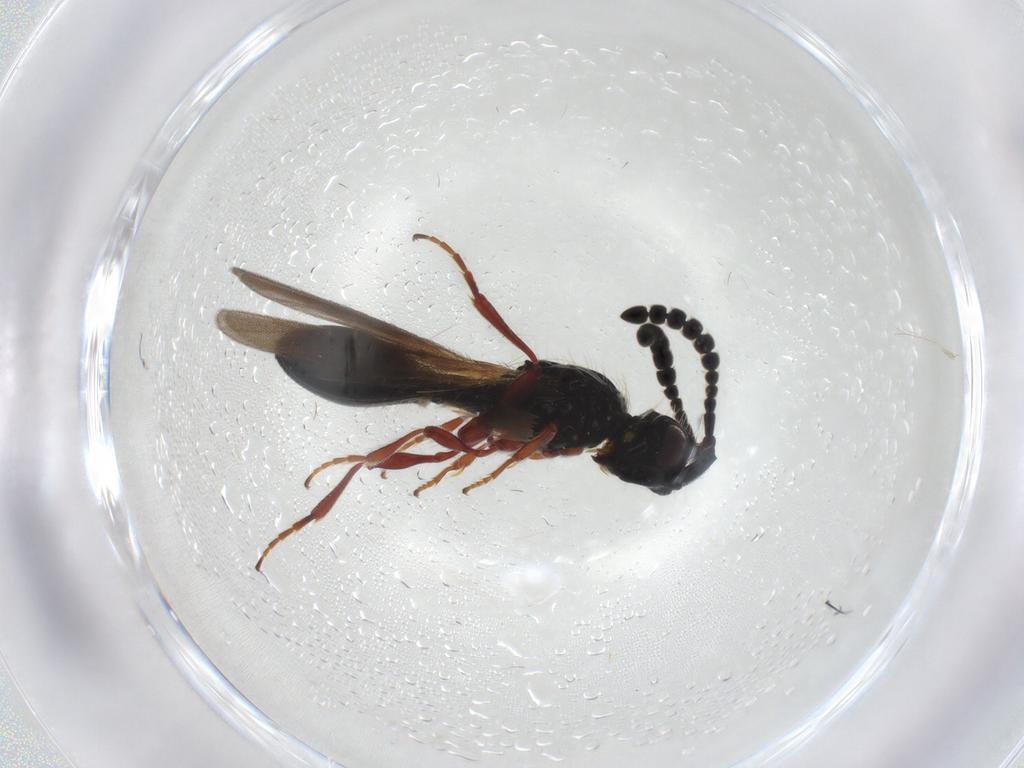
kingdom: Animalia
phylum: Arthropoda
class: Insecta
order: Hymenoptera
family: Diapriidae
